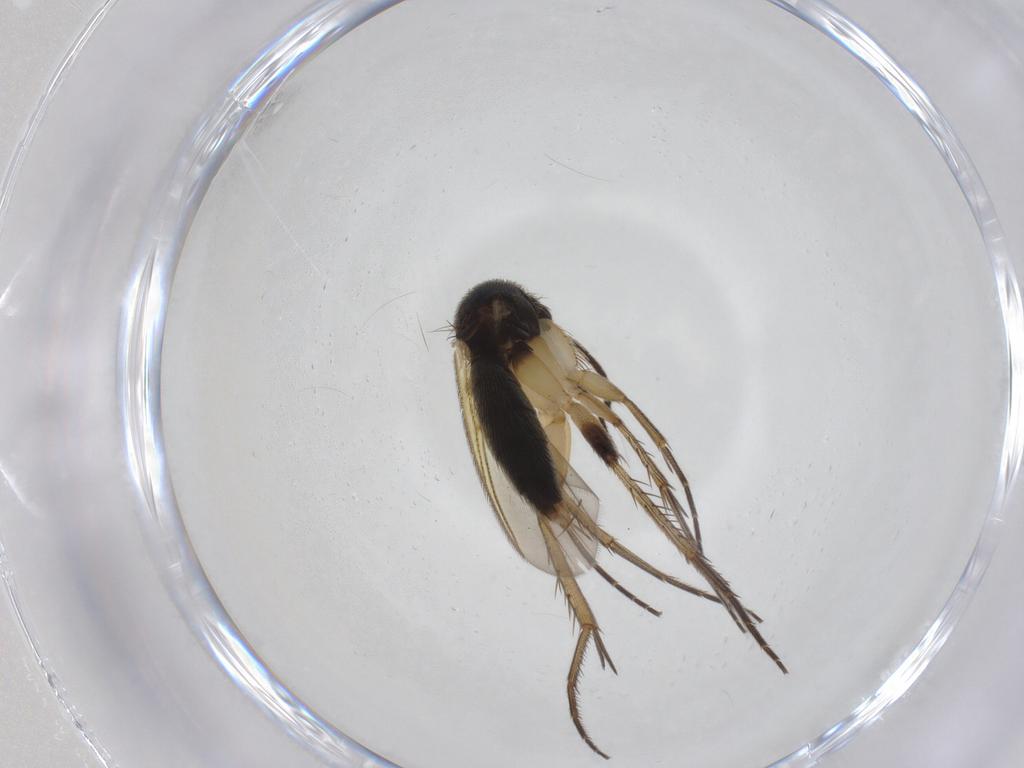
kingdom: Animalia
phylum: Arthropoda
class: Insecta
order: Diptera
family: Mycetophilidae
